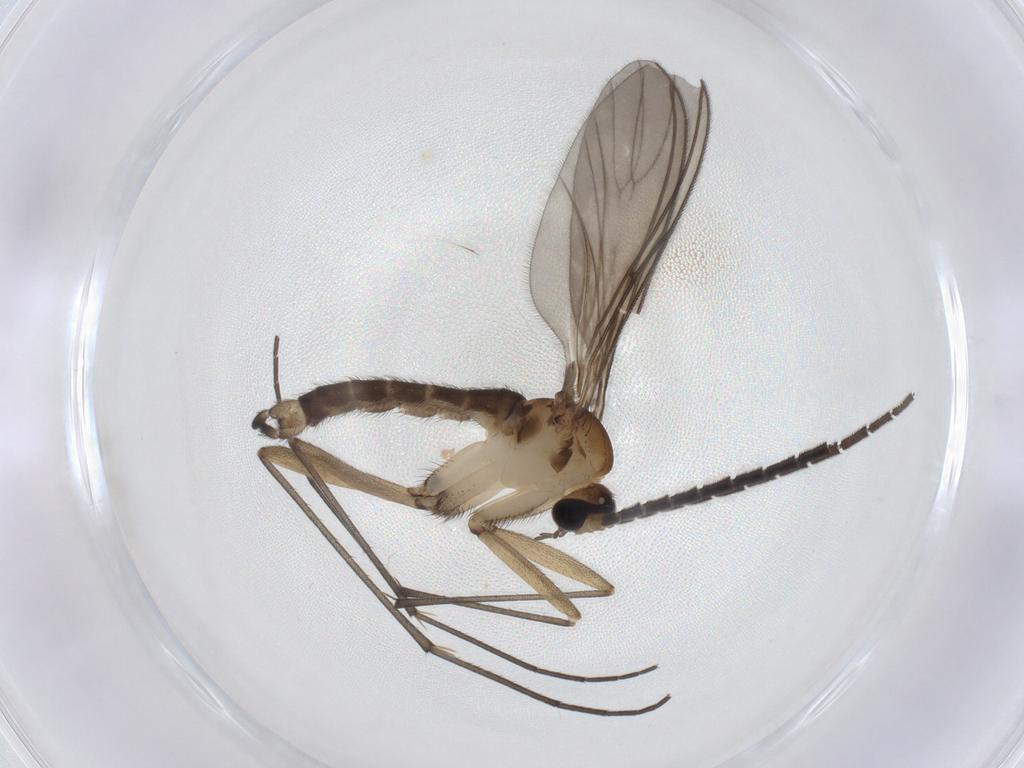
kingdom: Animalia
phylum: Arthropoda
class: Insecta
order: Diptera
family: Sciaridae
